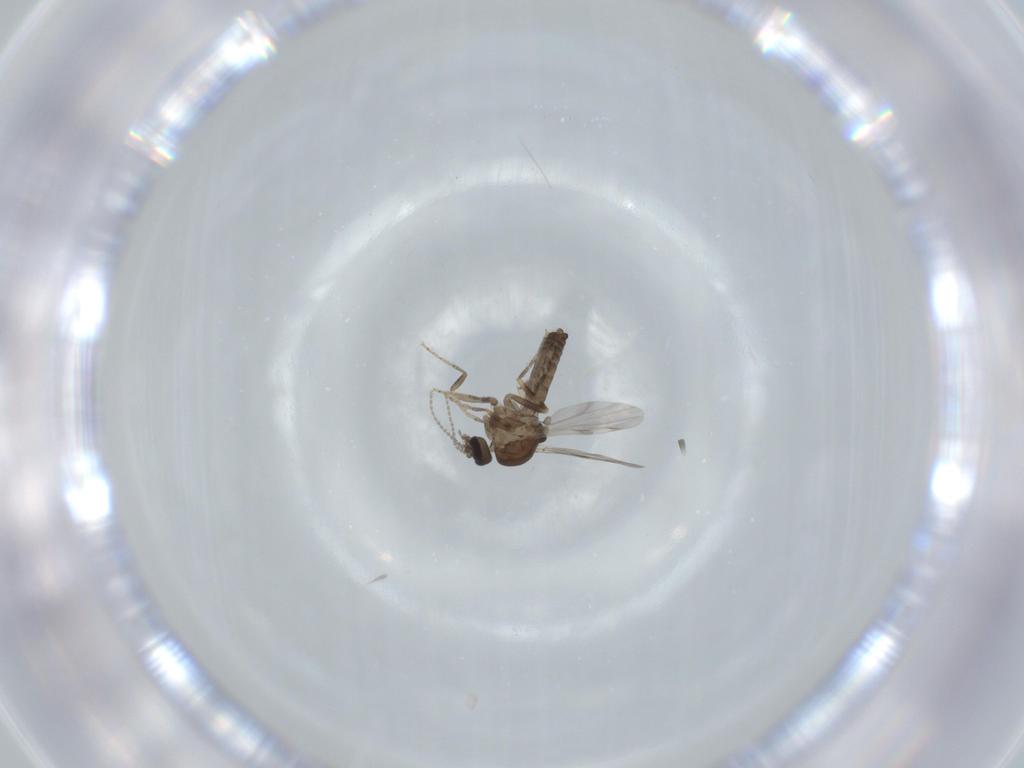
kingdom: Animalia
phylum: Arthropoda
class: Insecta
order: Diptera
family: Ceratopogonidae
